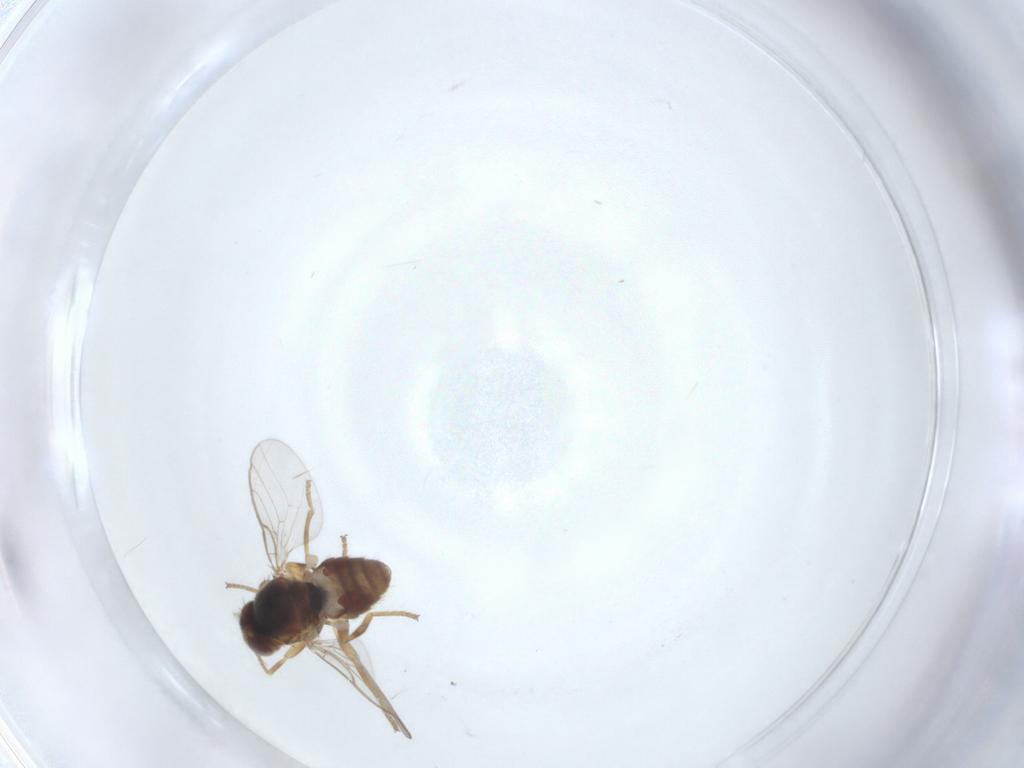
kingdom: Animalia
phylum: Arthropoda
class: Insecta
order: Diptera
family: Chloropidae
